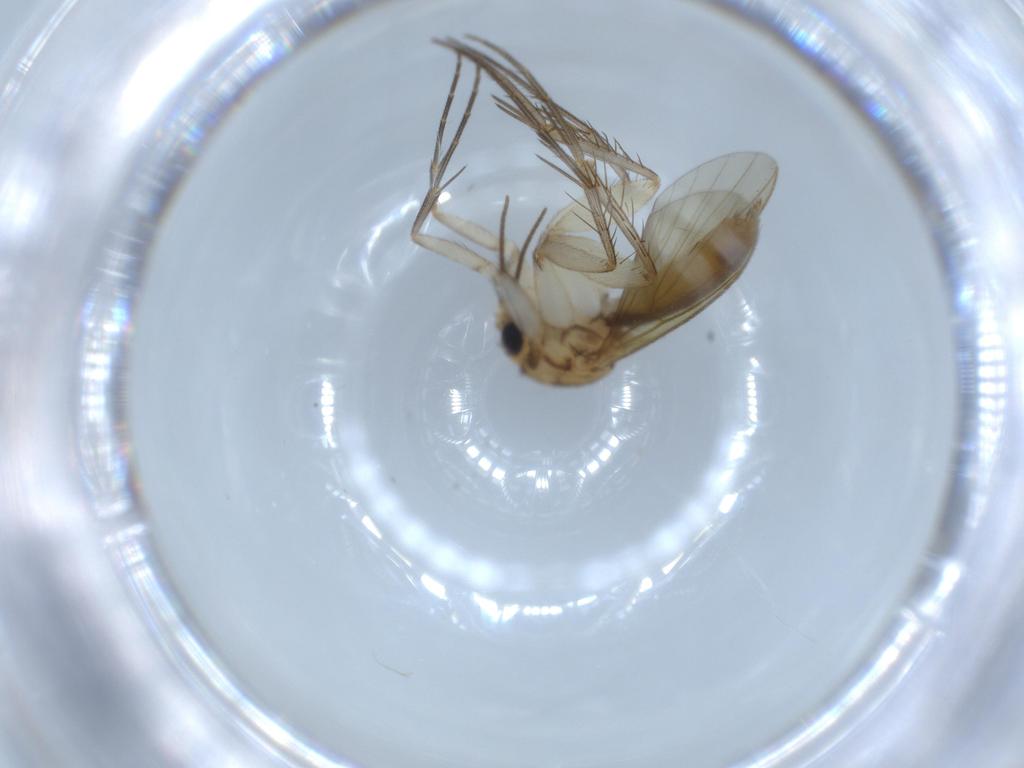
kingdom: Animalia
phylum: Arthropoda
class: Insecta
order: Diptera
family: Mycetophilidae
